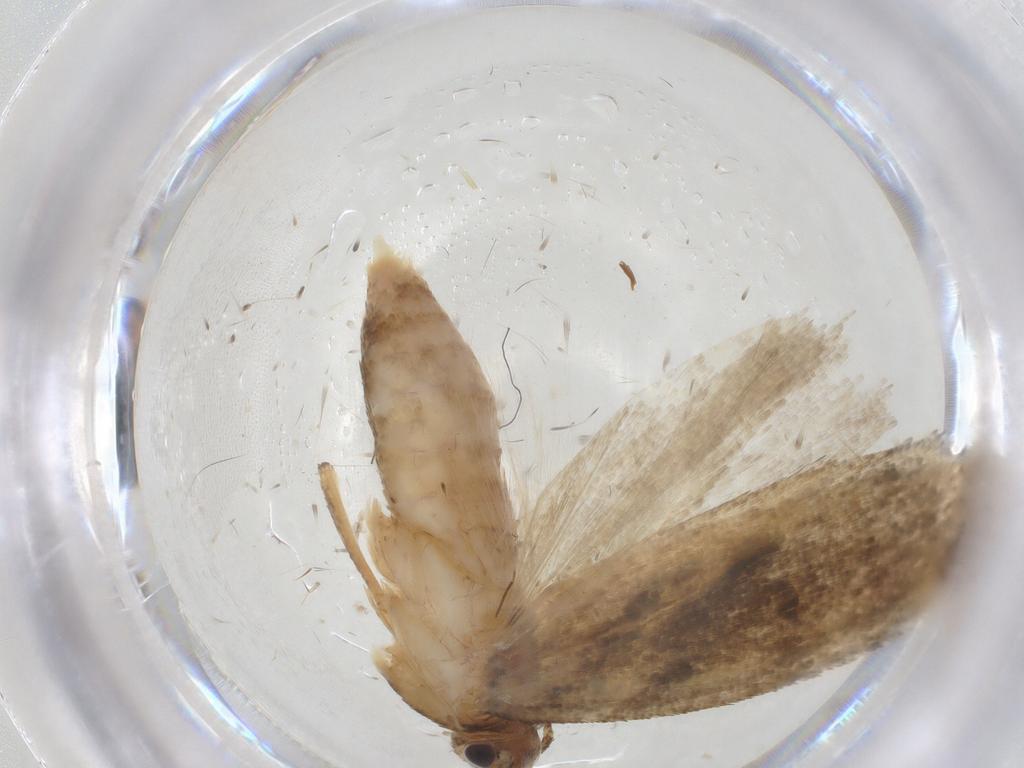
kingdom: Animalia
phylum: Arthropoda
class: Insecta
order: Lepidoptera
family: Gelechiidae
